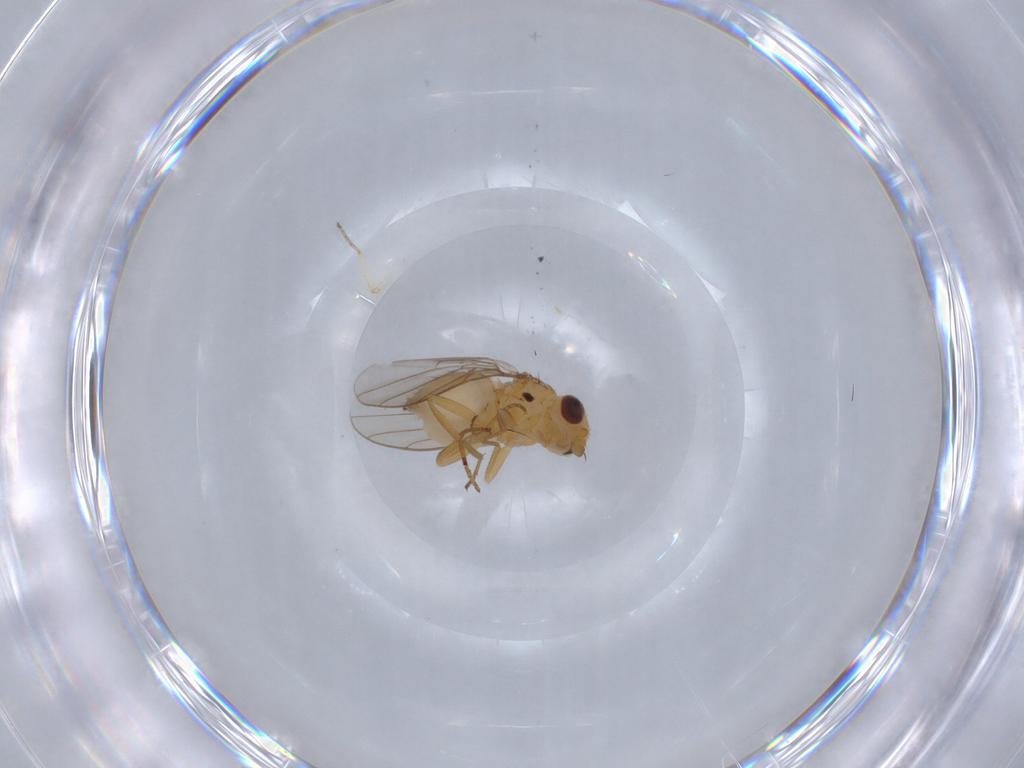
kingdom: Animalia
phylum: Arthropoda
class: Insecta
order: Diptera
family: Chloropidae
